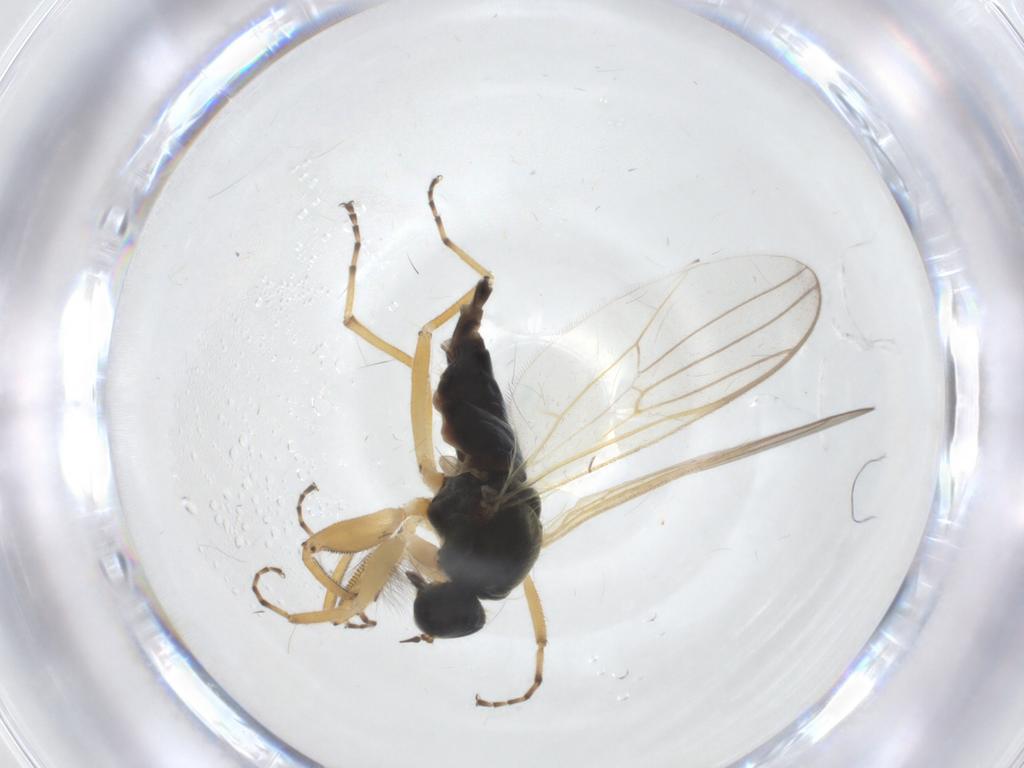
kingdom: Animalia
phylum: Arthropoda
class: Insecta
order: Diptera
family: Hybotidae
